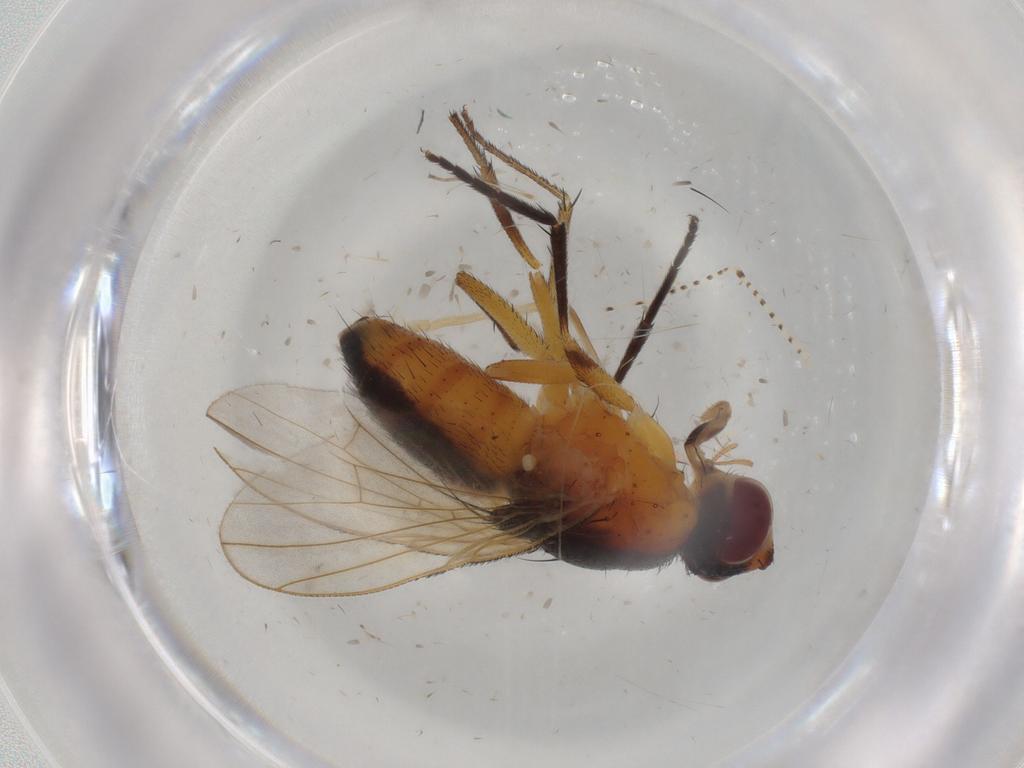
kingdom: Animalia
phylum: Arthropoda
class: Insecta
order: Diptera
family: Muscidae
